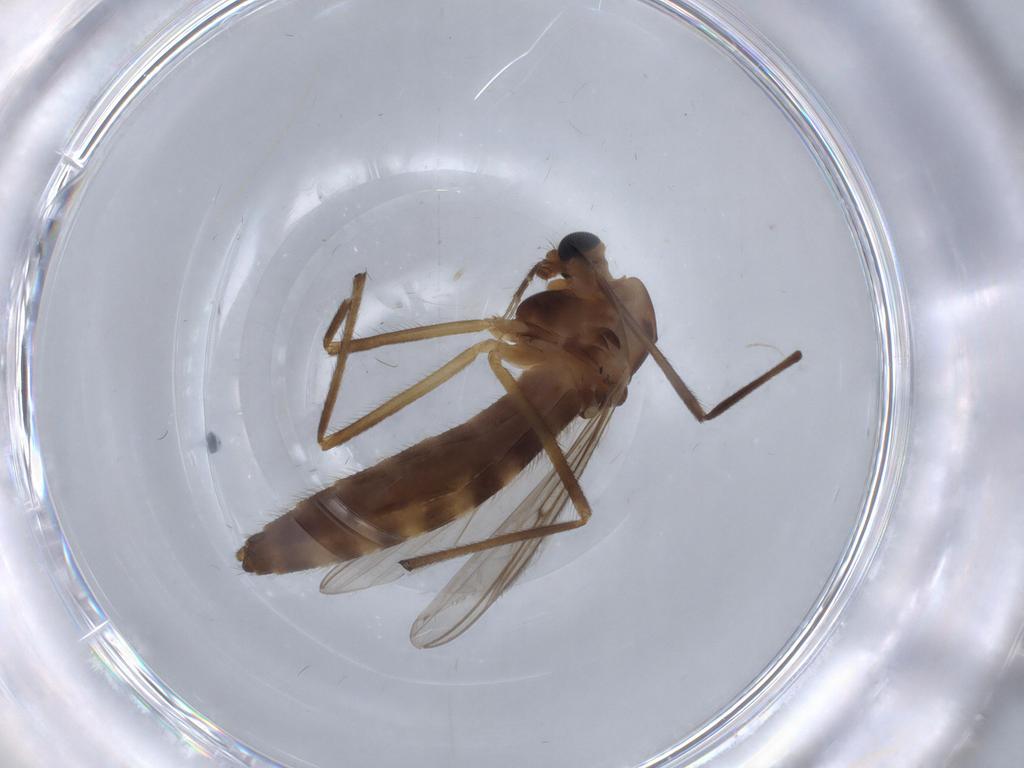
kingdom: Animalia
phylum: Arthropoda
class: Insecta
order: Diptera
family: Chironomidae
